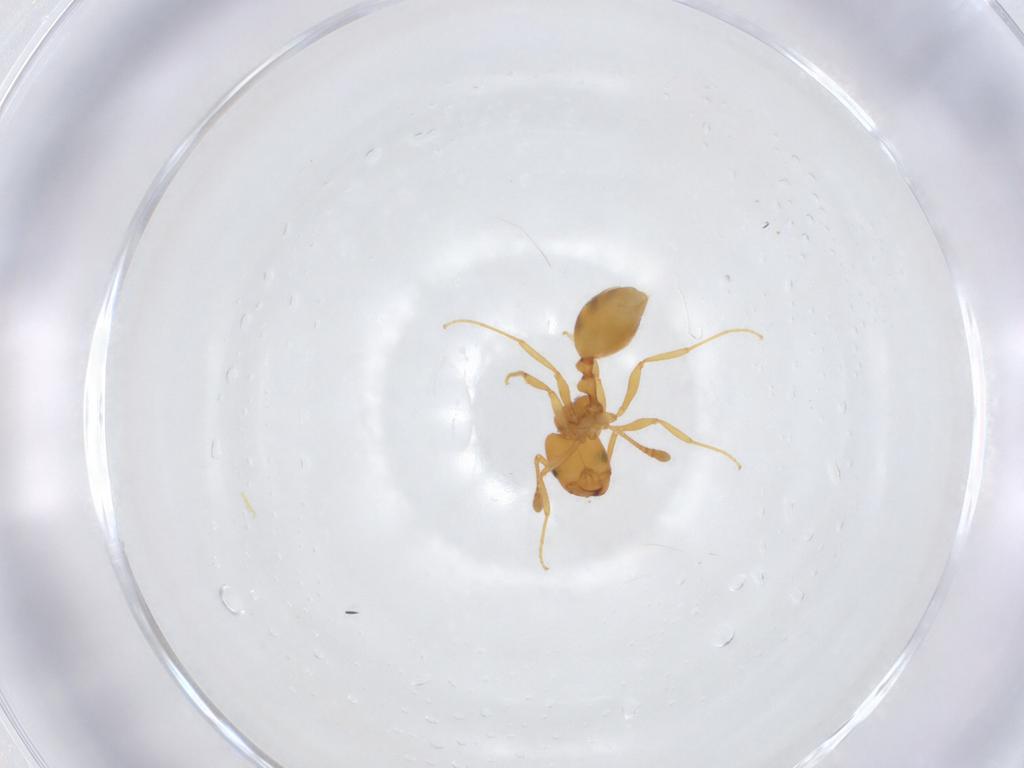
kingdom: Animalia
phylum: Arthropoda
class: Insecta
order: Hymenoptera
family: Formicidae
